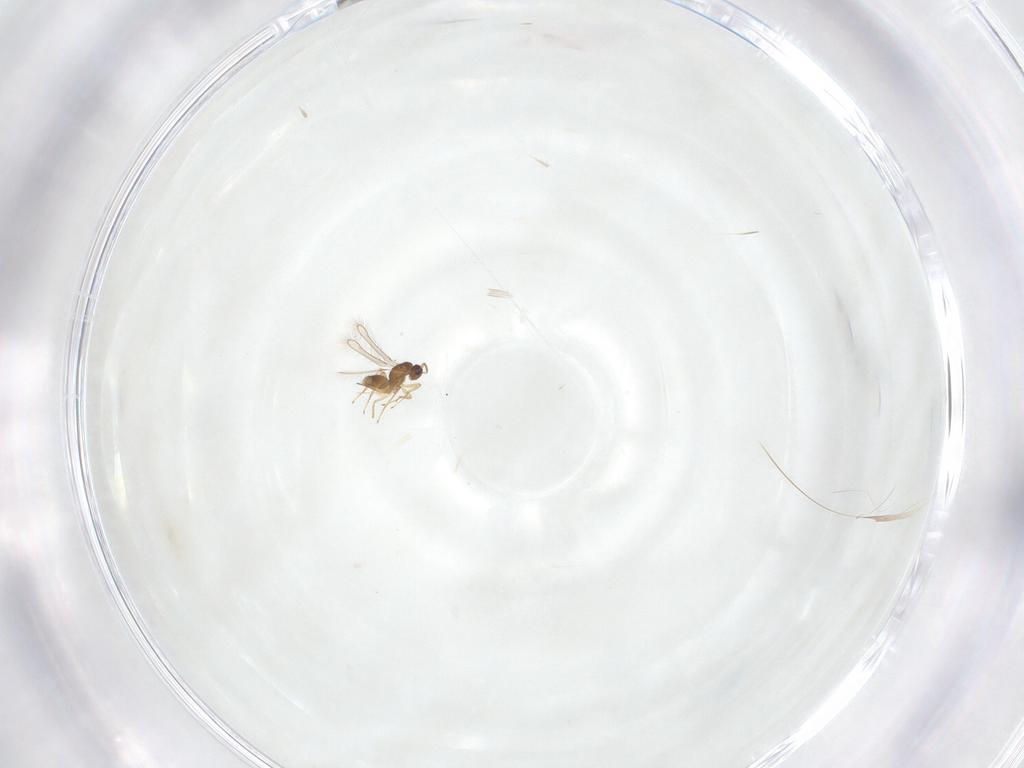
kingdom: Animalia
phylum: Arthropoda
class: Insecta
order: Hymenoptera
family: Mymaridae
